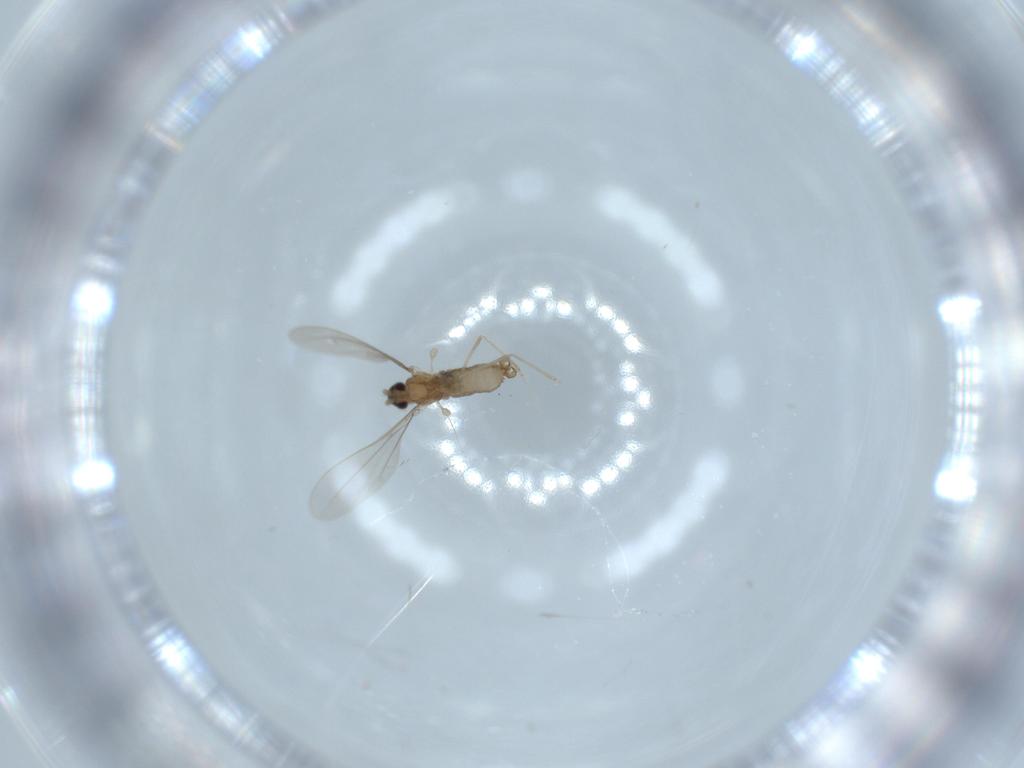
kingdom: Animalia
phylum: Arthropoda
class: Insecta
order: Diptera
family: Cecidomyiidae
